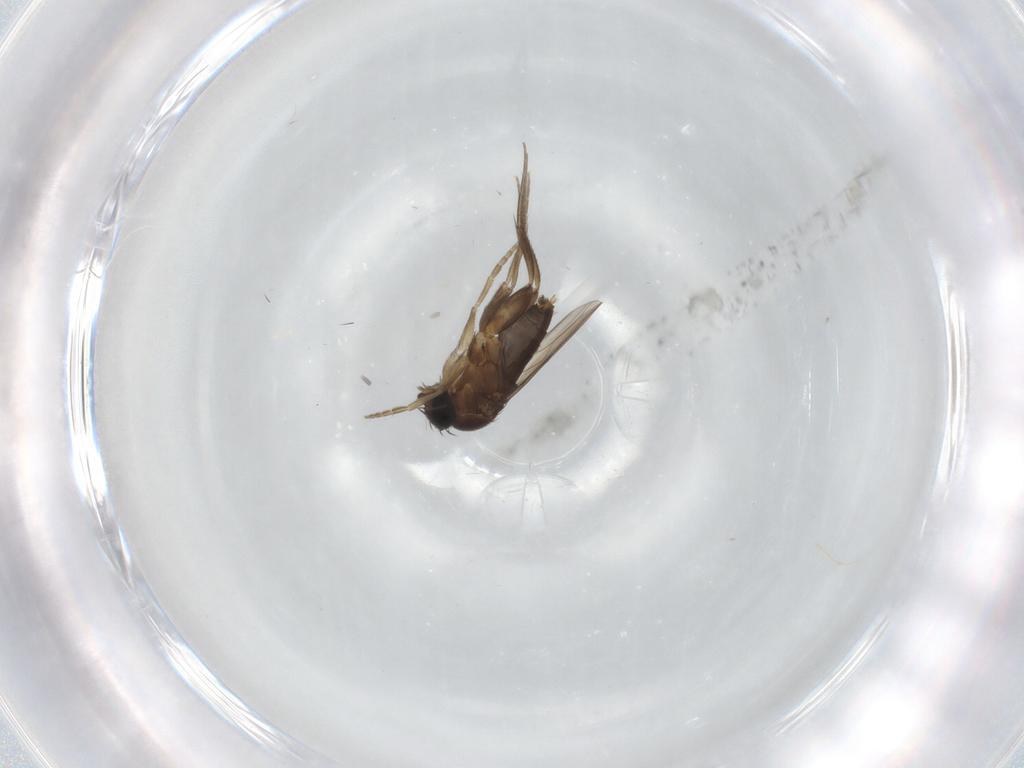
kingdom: Animalia
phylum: Arthropoda
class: Insecta
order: Diptera
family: Phoridae
